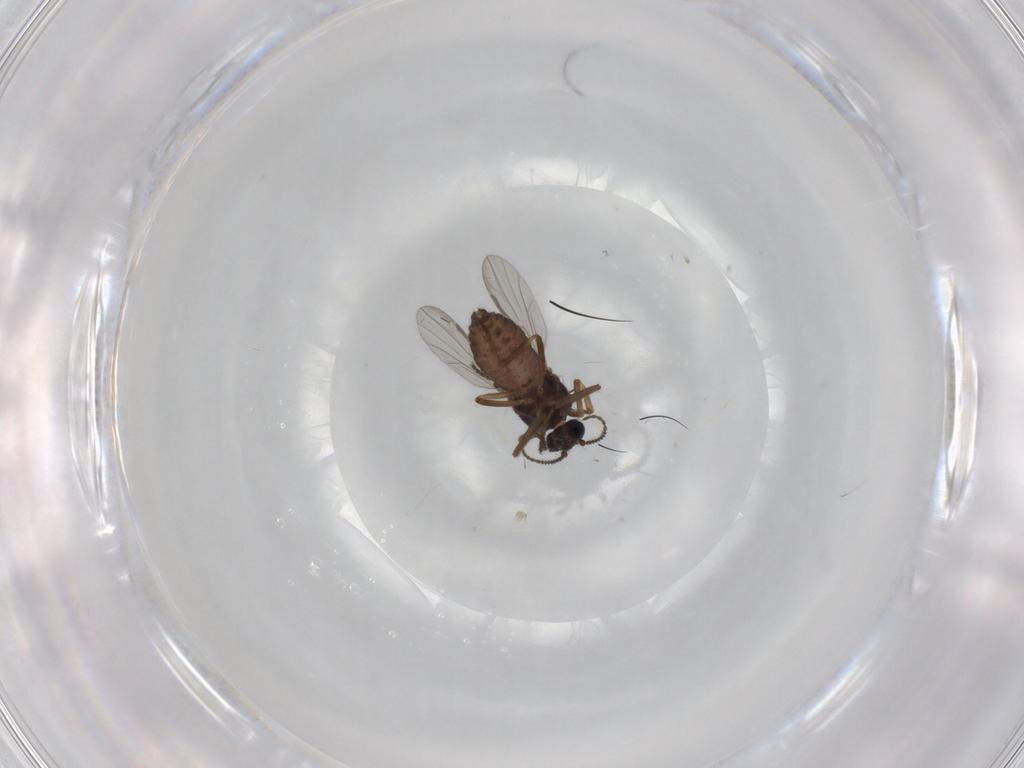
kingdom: Animalia
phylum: Arthropoda
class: Insecta
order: Diptera
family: Ceratopogonidae
